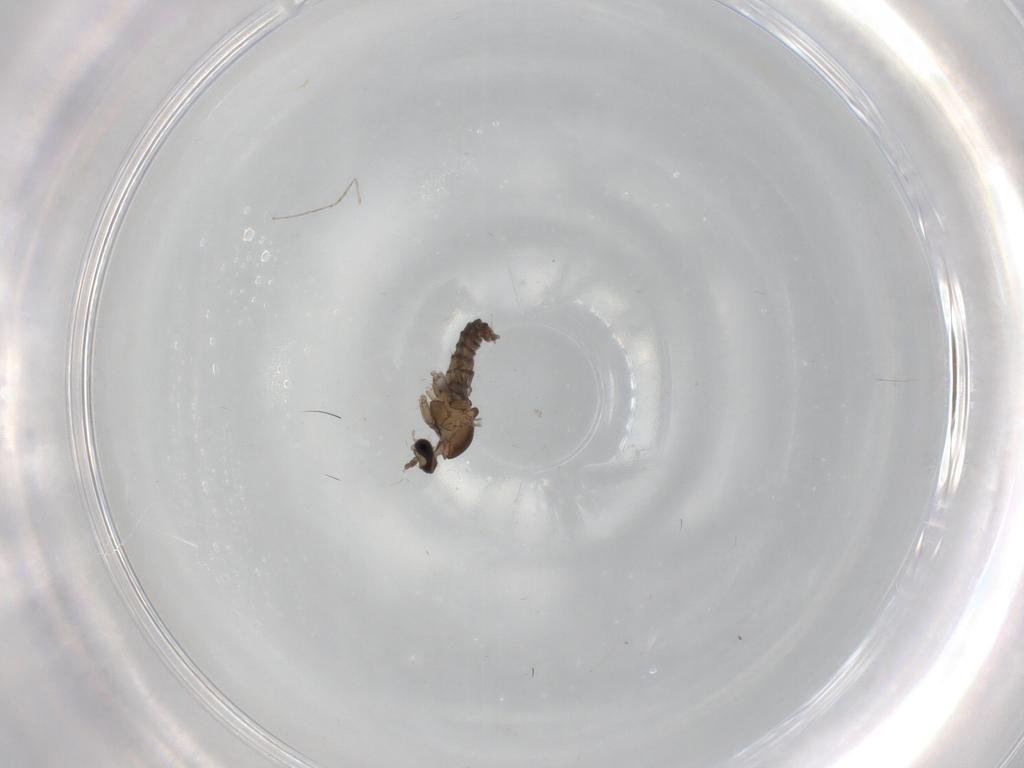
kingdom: Animalia
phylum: Arthropoda
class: Insecta
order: Diptera
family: Cecidomyiidae
